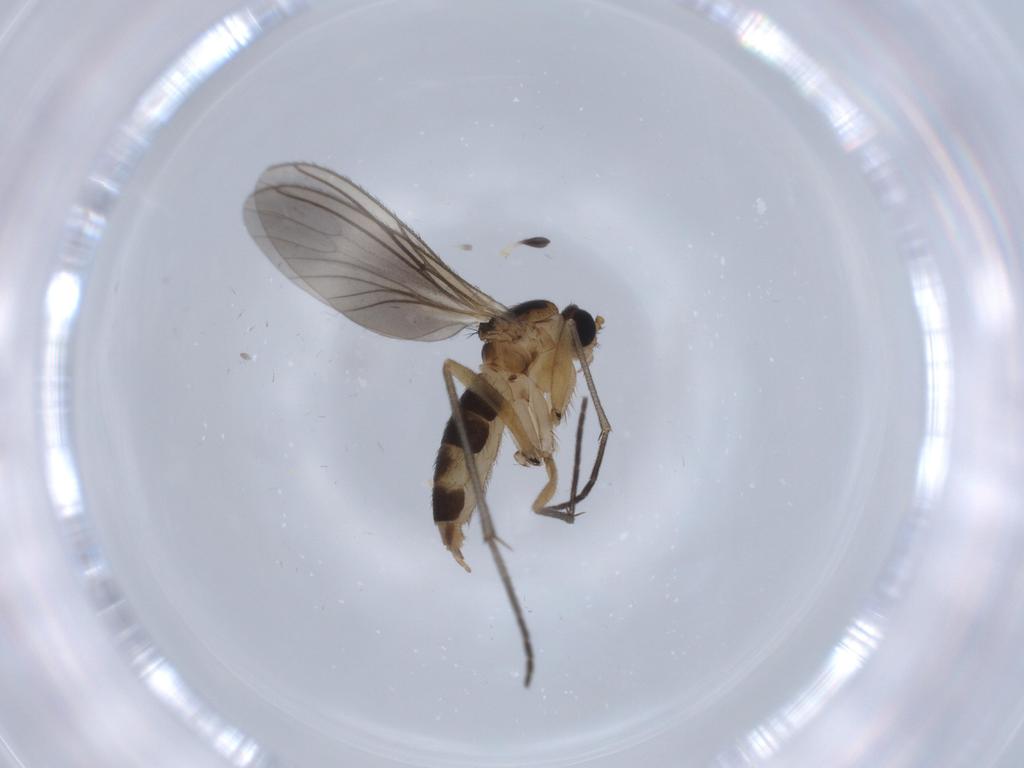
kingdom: Animalia
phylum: Arthropoda
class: Insecta
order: Diptera
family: Sciaridae
